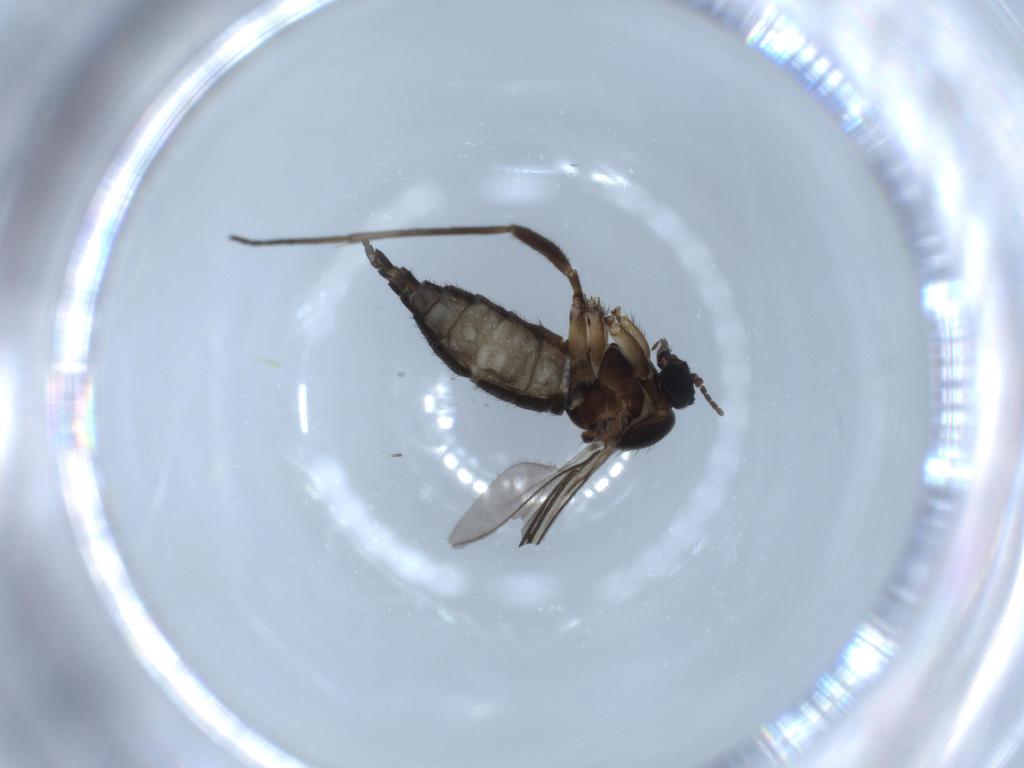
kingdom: Animalia
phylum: Arthropoda
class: Insecta
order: Diptera
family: Sciaridae
